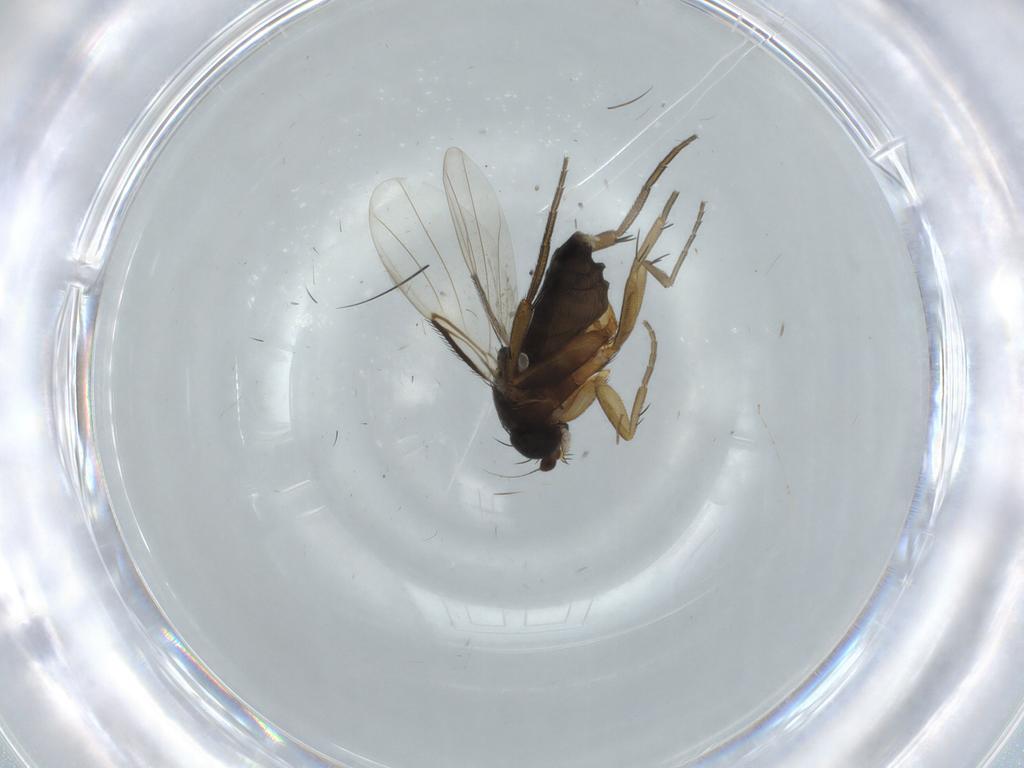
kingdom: Animalia
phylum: Arthropoda
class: Insecta
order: Diptera
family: Phoridae
